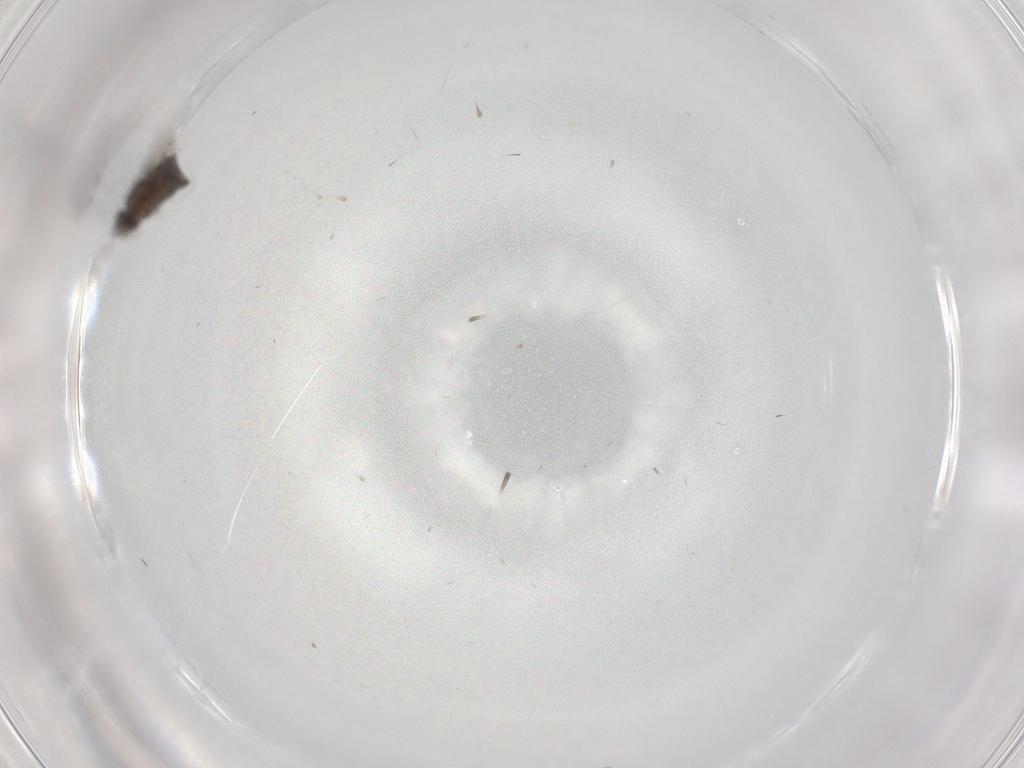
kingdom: Animalia
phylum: Arthropoda
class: Insecta
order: Diptera
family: Phoridae
